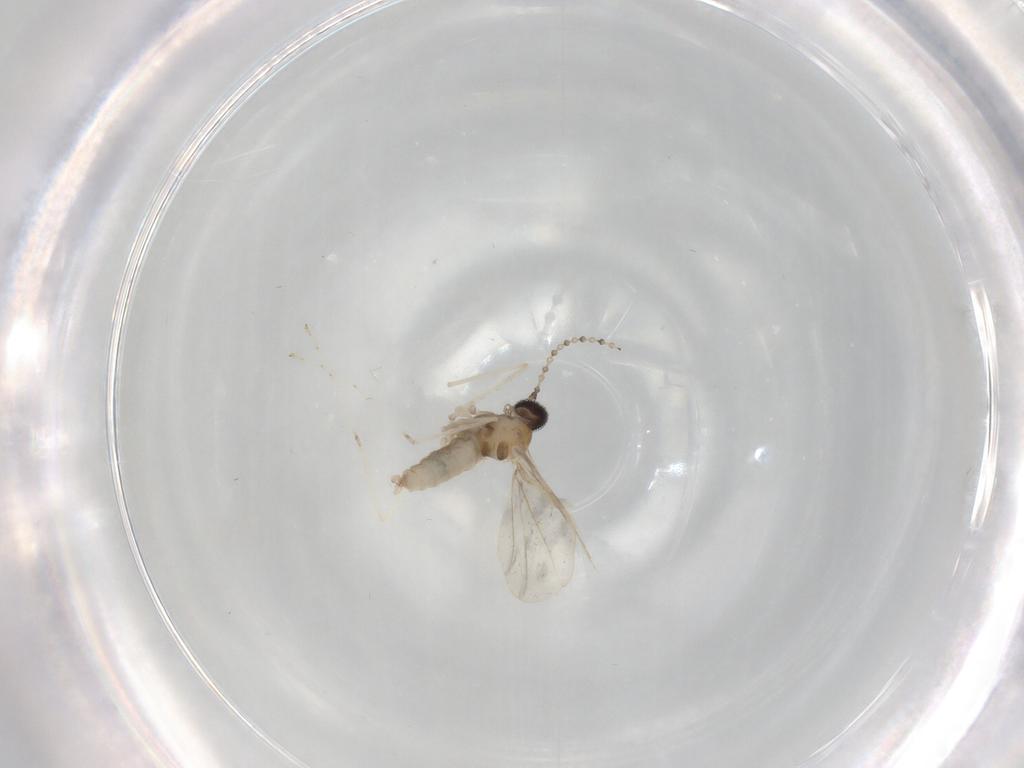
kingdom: Animalia
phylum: Arthropoda
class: Insecta
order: Diptera
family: Cecidomyiidae
